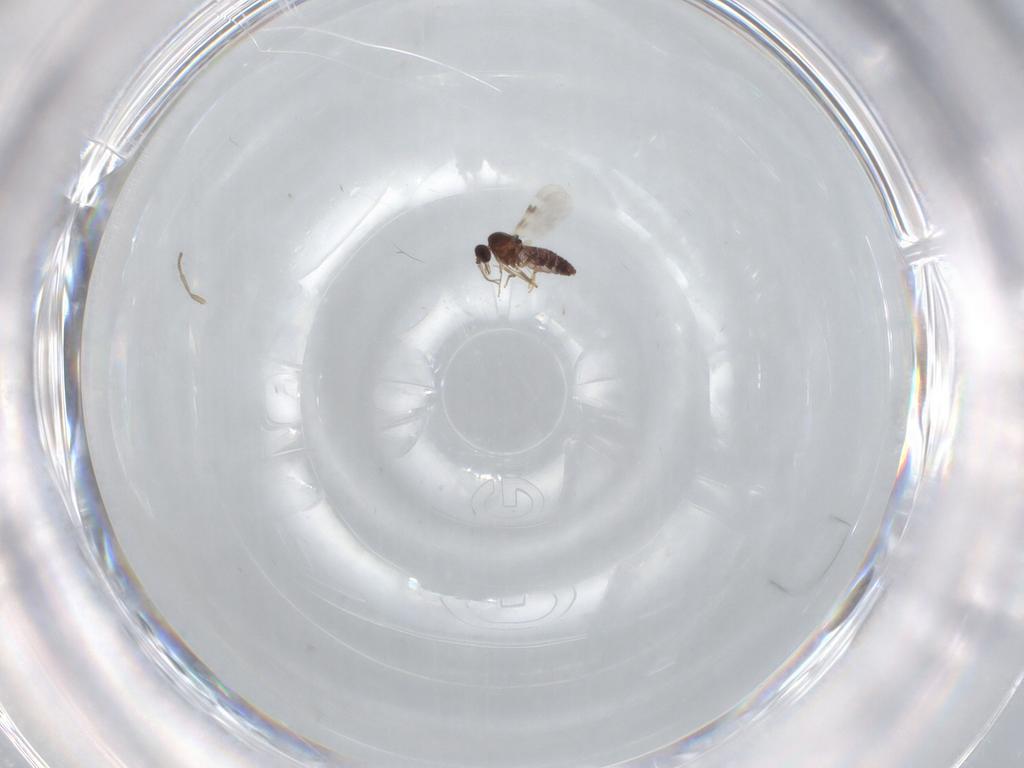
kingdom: Animalia
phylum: Arthropoda
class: Insecta
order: Diptera
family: Psychodidae
